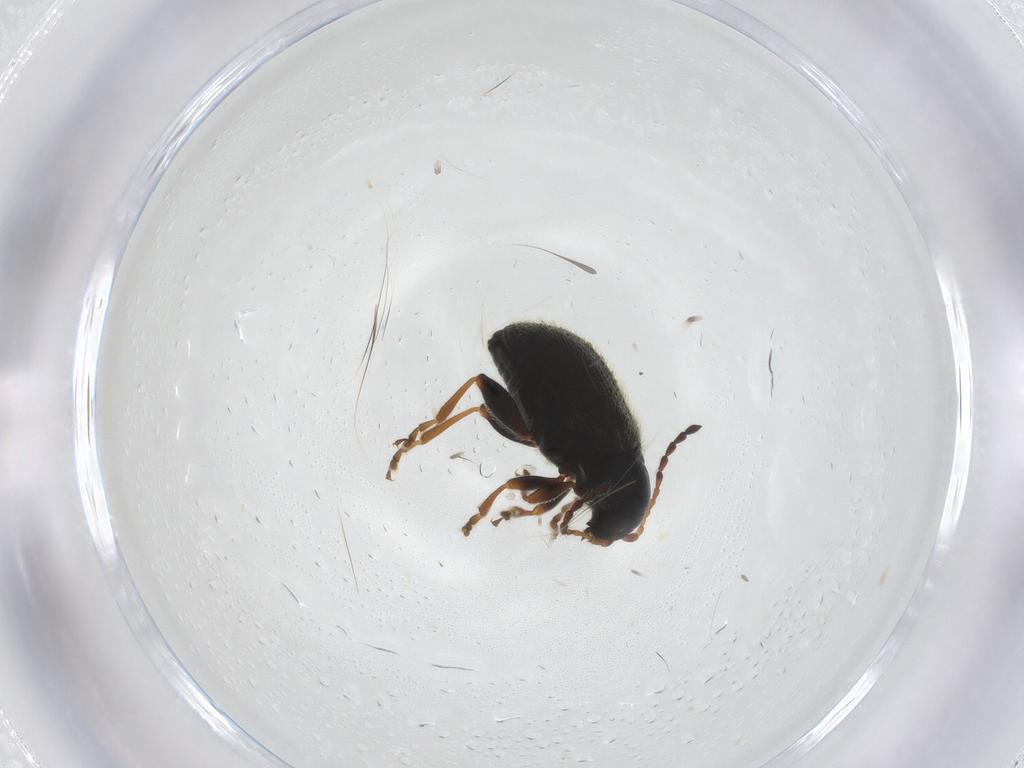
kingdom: Animalia
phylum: Arthropoda
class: Insecta
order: Coleoptera
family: Chrysomelidae
